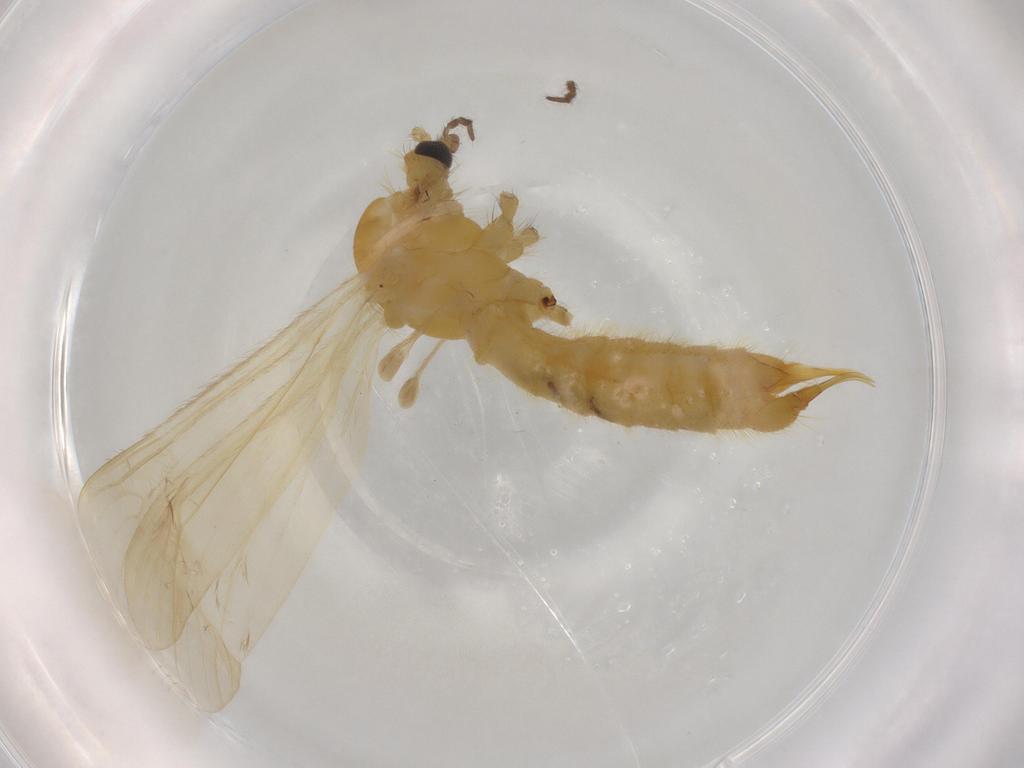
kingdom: Animalia
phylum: Arthropoda
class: Insecta
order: Diptera
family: Limoniidae
